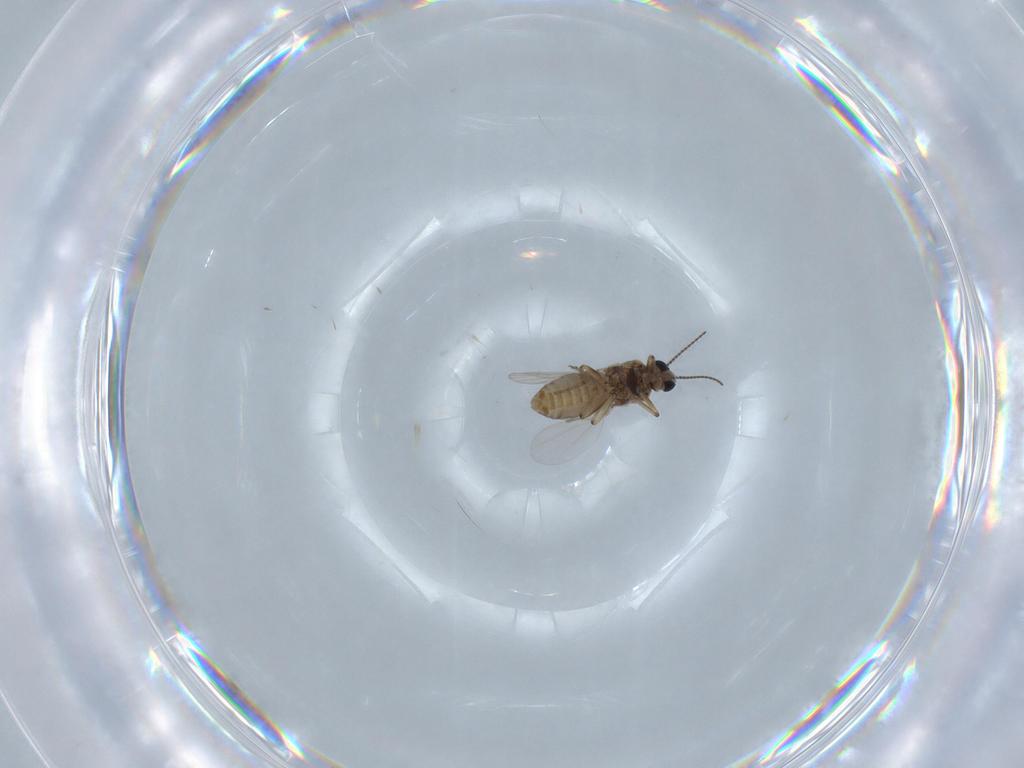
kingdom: Animalia
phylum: Arthropoda
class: Insecta
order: Diptera
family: Ceratopogonidae
